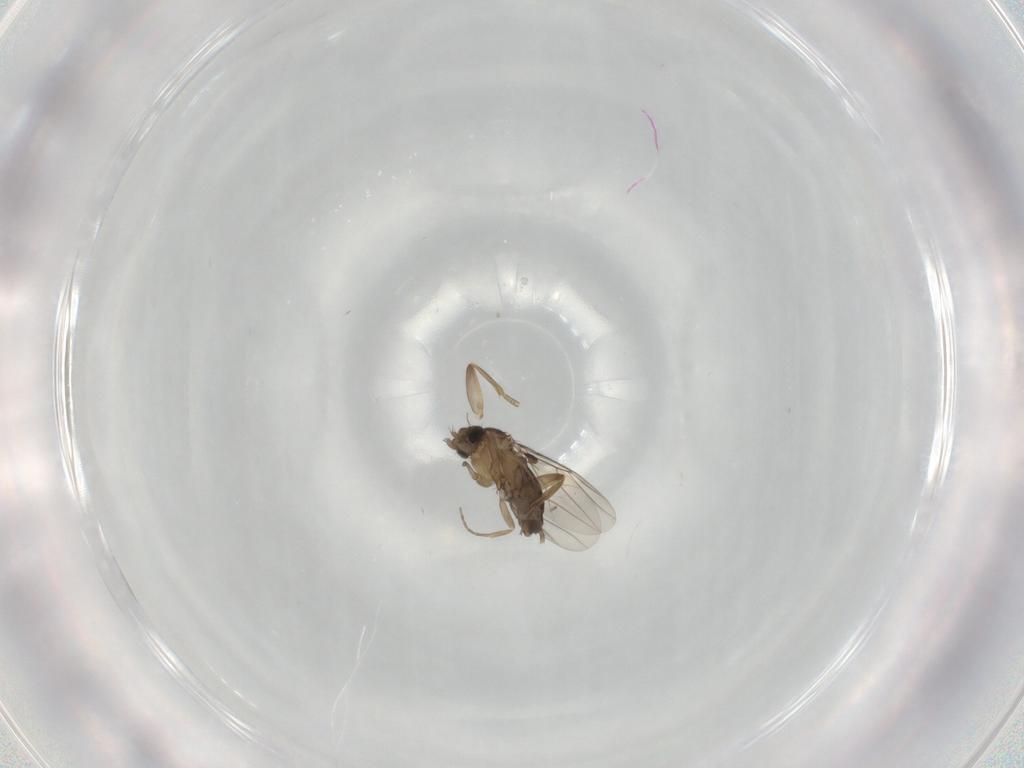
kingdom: Animalia
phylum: Arthropoda
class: Insecta
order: Diptera
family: Phoridae
